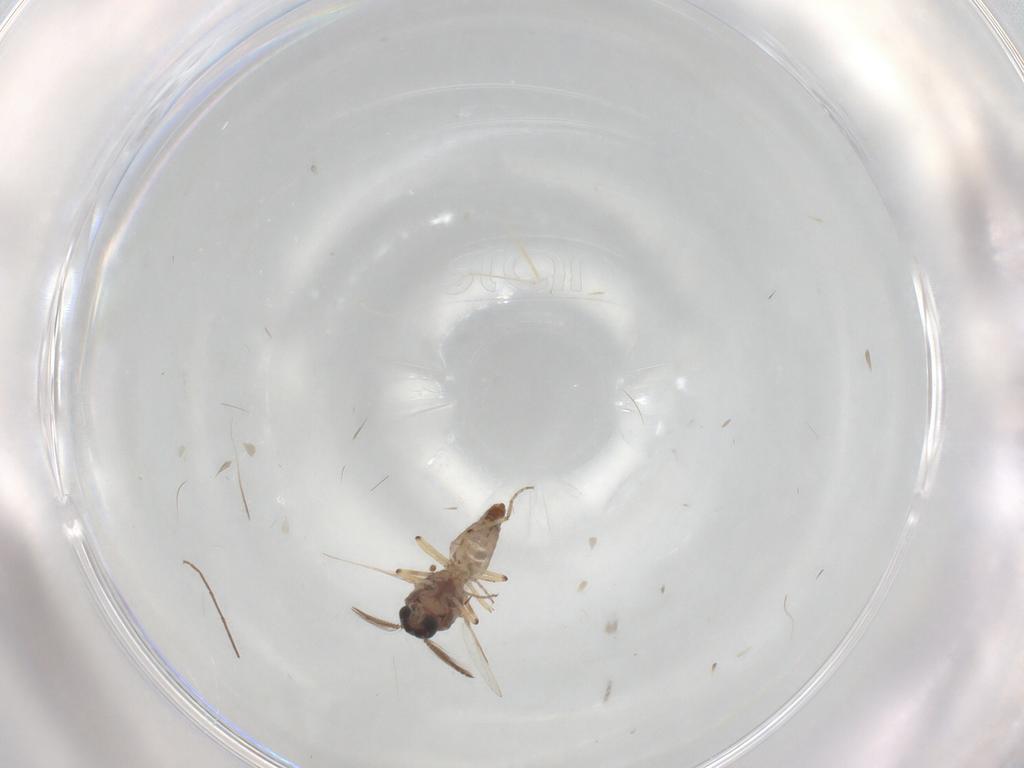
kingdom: Animalia
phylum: Arthropoda
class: Insecta
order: Diptera
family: Ceratopogonidae
